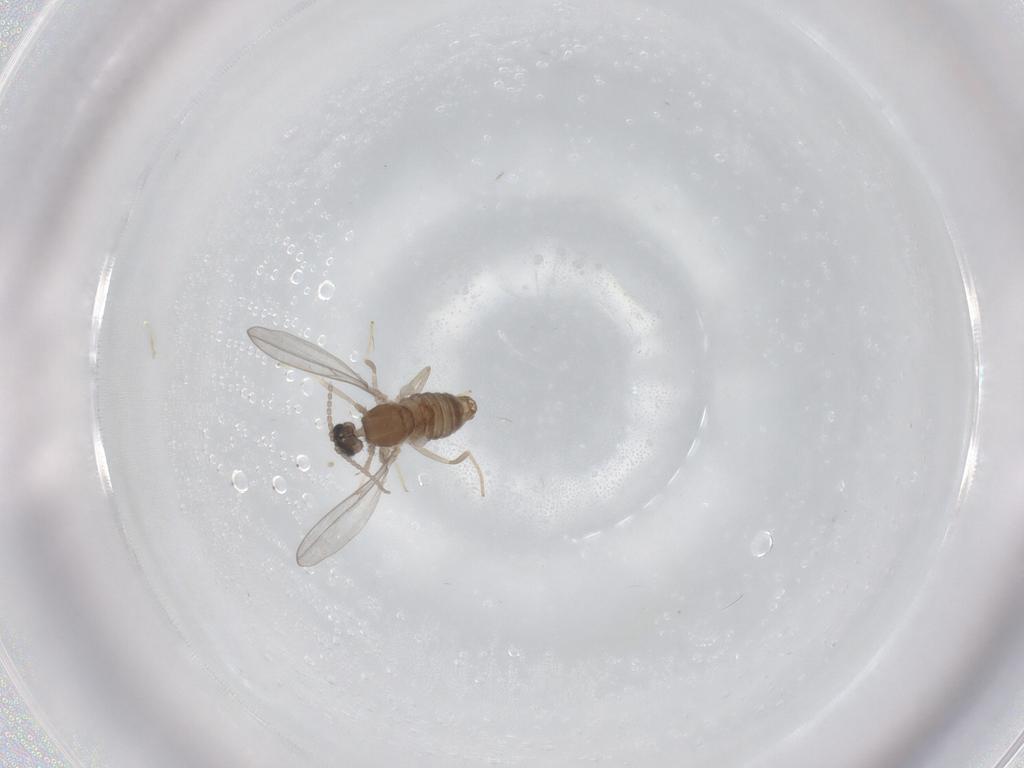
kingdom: Animalia
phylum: Arthropoda
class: Insecta
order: Diptera
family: Cecidomyiidae
